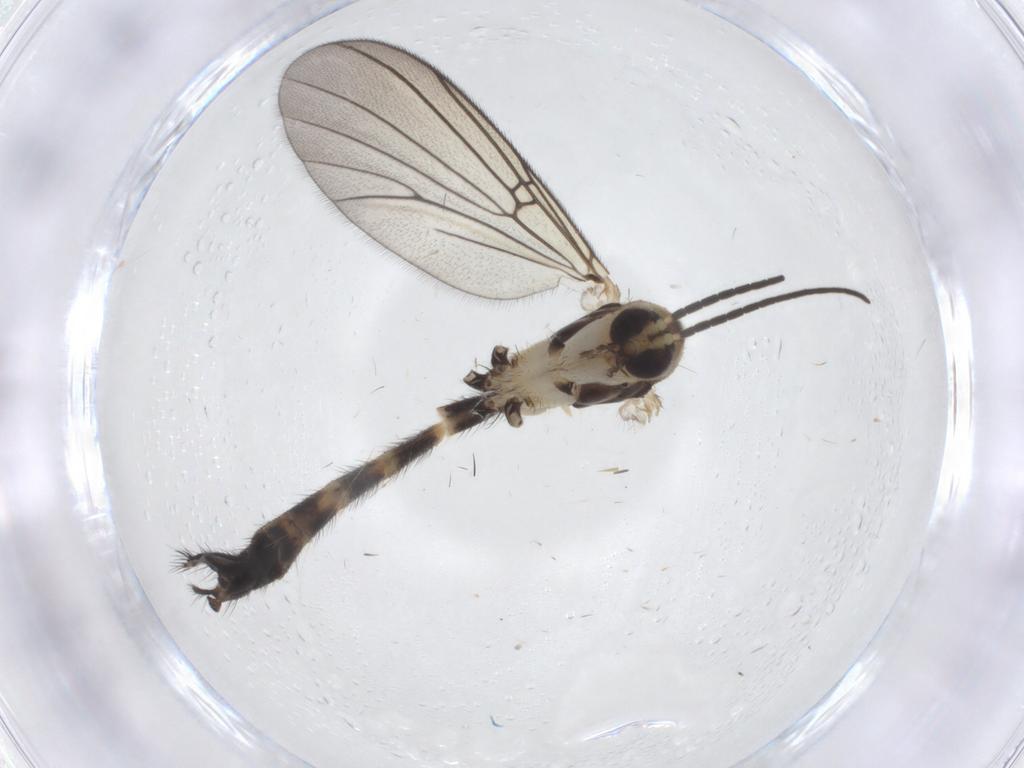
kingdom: Animalia
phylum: Arthropoda
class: Insecta
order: Diptera
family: Mycetophilidae
